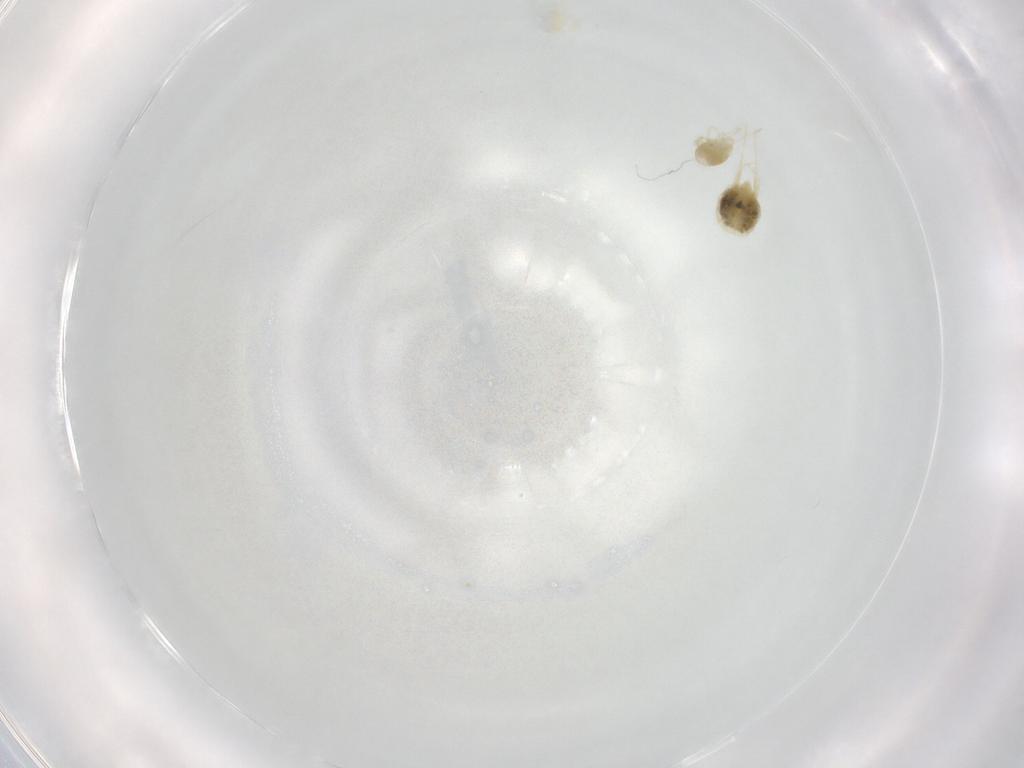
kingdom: Animalia
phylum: Arthropoda
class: Arachnida
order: Trombidiformes
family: Tetranychidae
